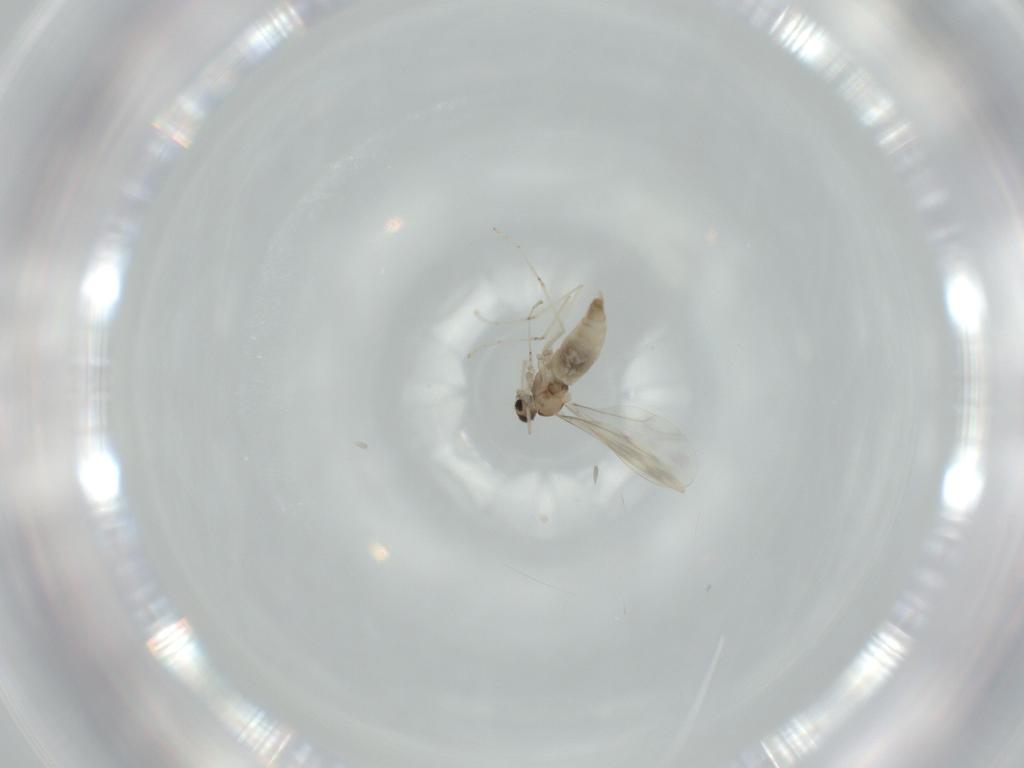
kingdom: Animalia
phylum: Arthropoda
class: Insecta
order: Diptera
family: Cecidomyiidae
